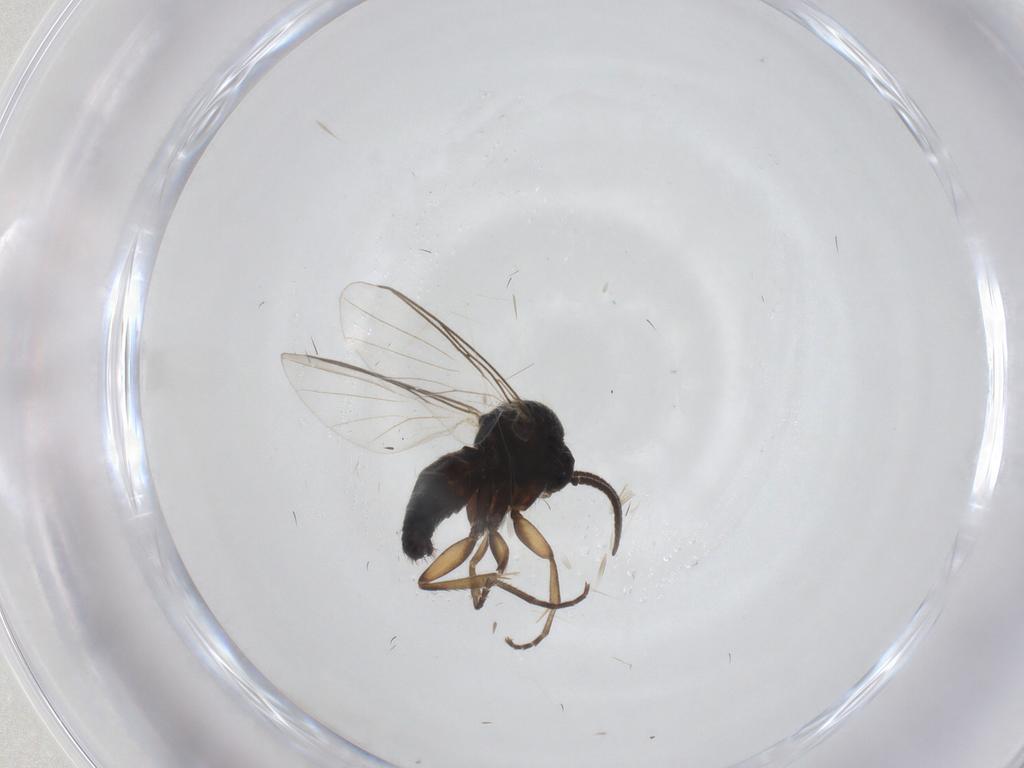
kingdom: Animalia
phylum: Arthropoda
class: Insecta
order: Diptera
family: Mycetophilidae
